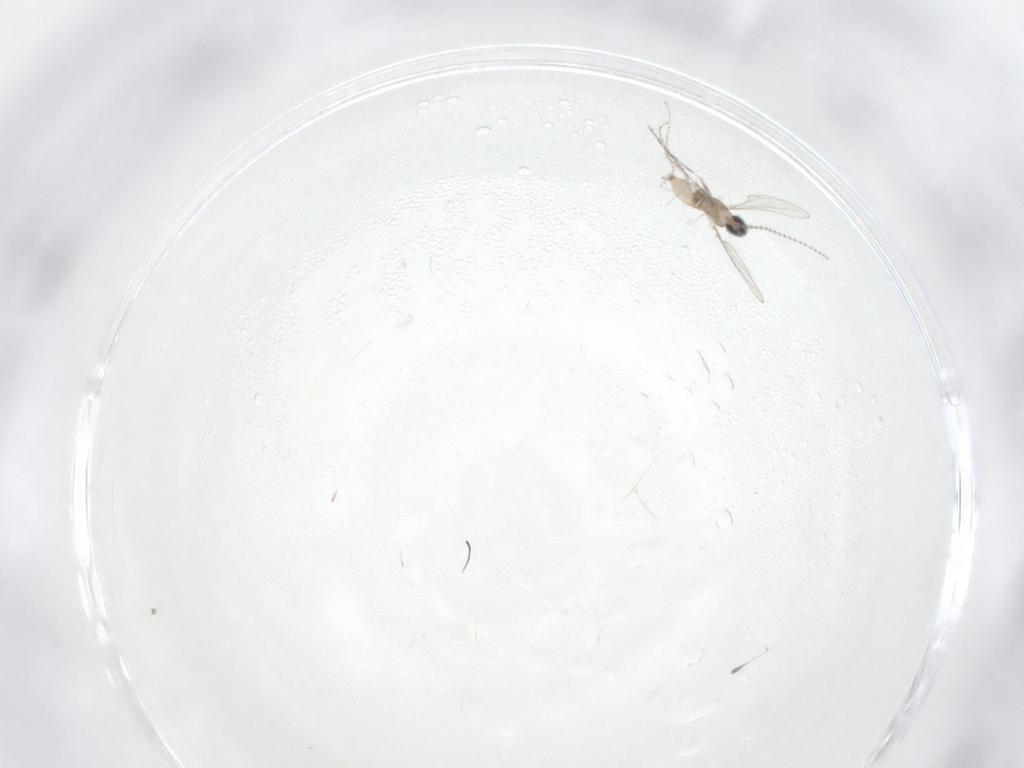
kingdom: Animalia
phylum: Arthropoda
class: Insecta
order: Diptera
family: Cecidomyiidae
